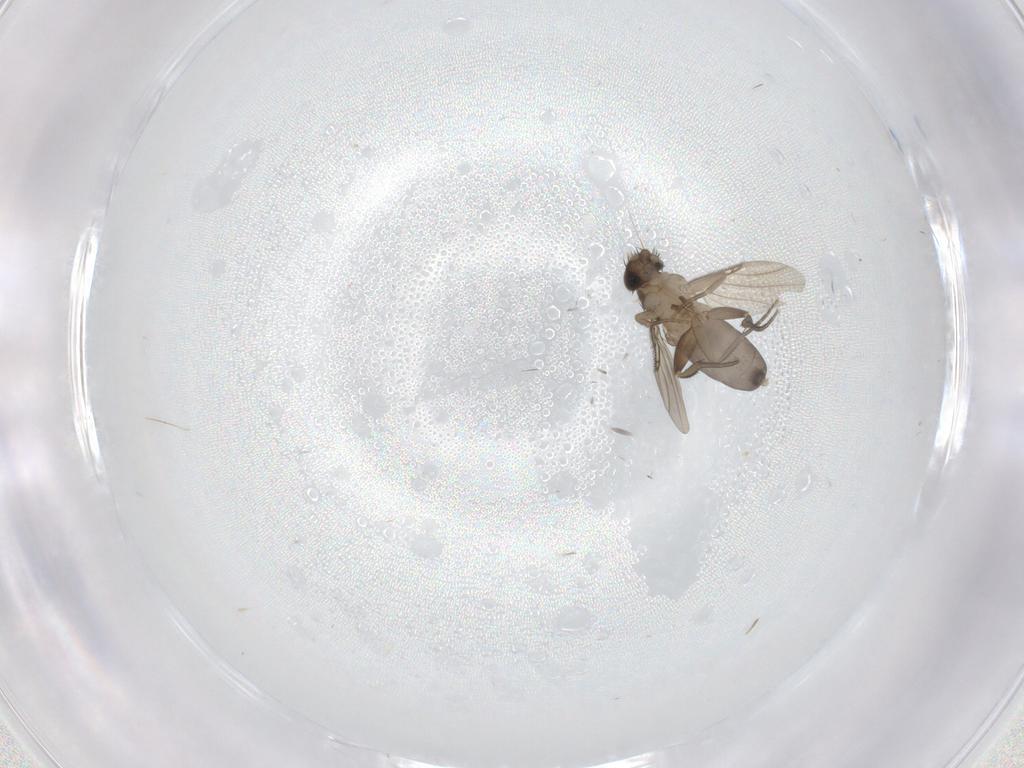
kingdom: Animalia
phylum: Arthropoda
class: Insecta
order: Diptera
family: Phoridae
